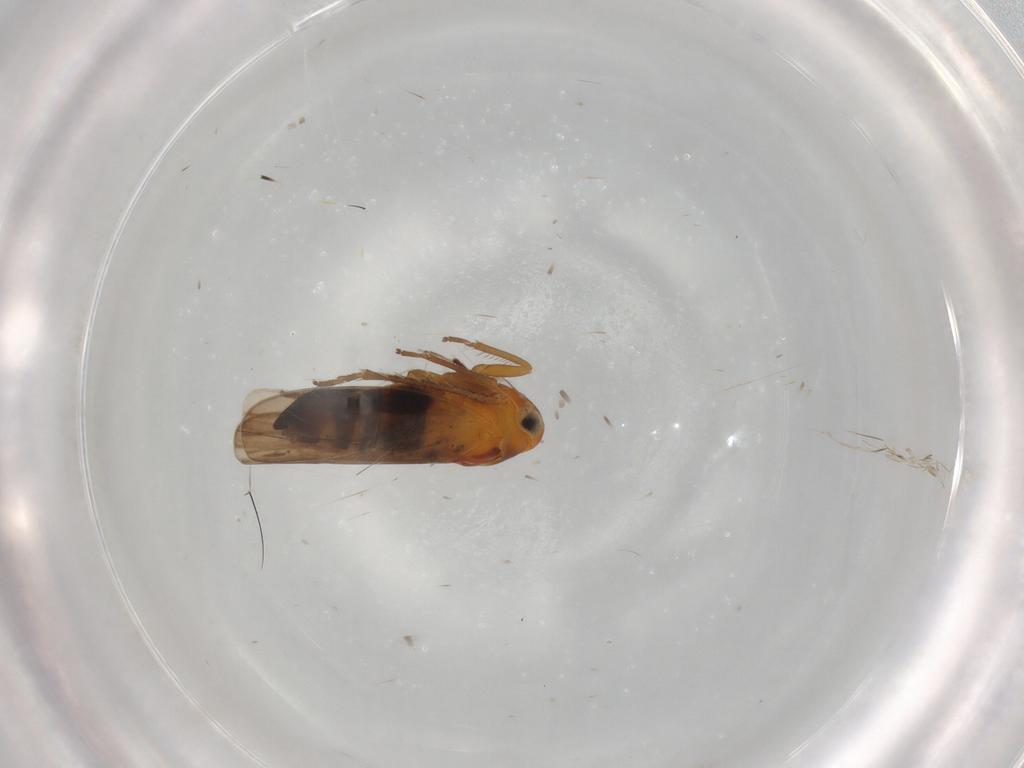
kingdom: Animalia
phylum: Arthropoda
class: Insecta
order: Hemiptera
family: Cicadellidae
